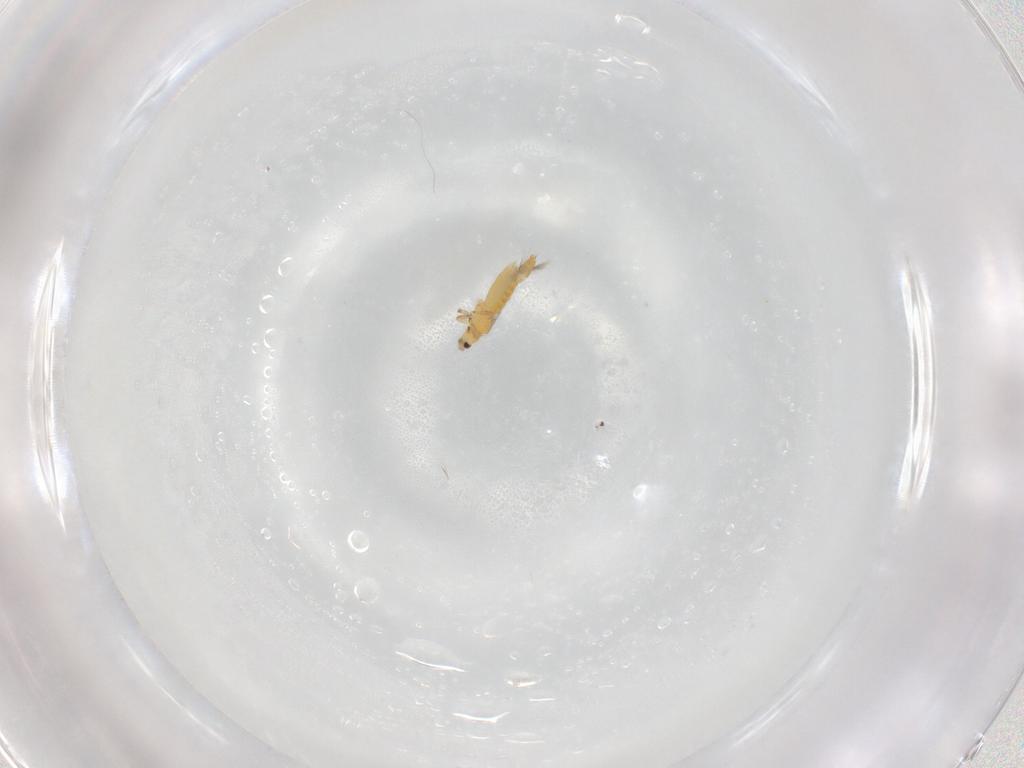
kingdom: Animalia
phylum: Arthropoda
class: Insecta
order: Thysanoptera
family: Thripidae
